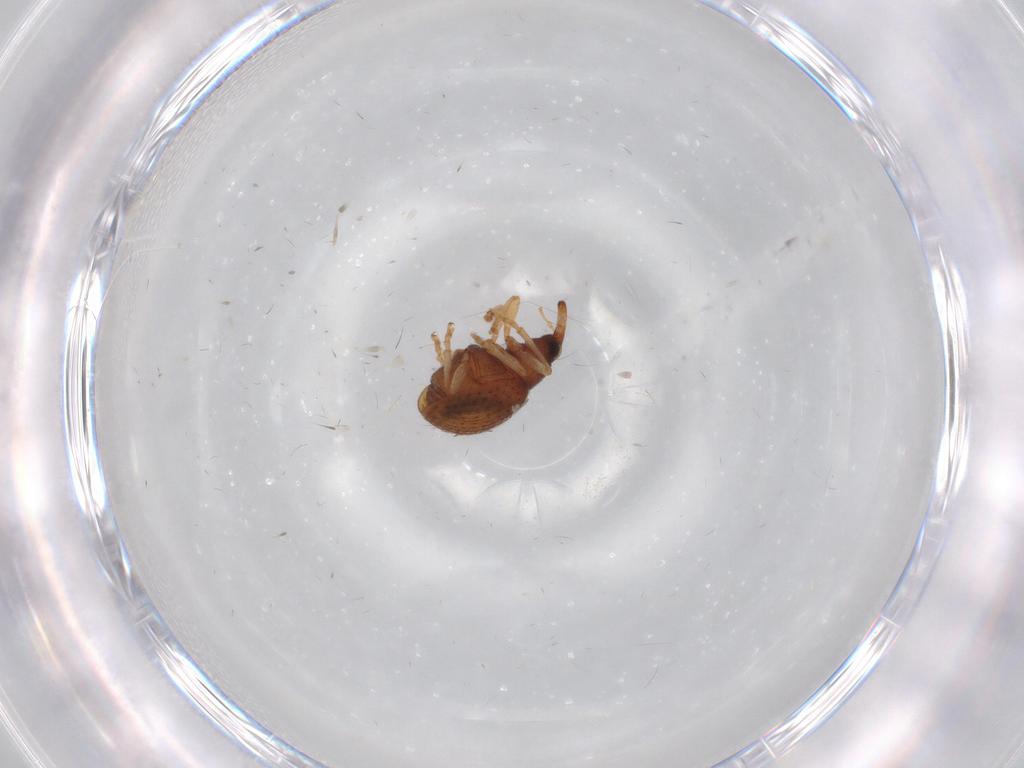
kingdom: Animalia
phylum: Arthropoda
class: Insecta
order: Coleoptera
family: Brentidae
